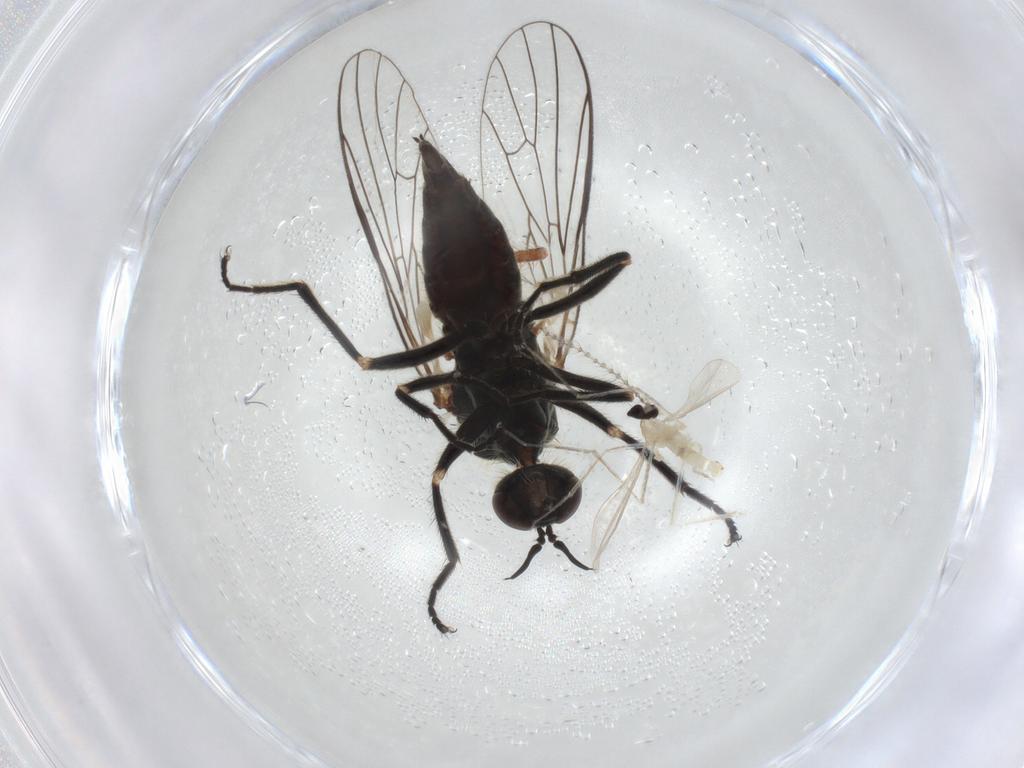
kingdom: Animalia
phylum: Arthropoda
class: Insecta
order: Diptera
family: Empididae
